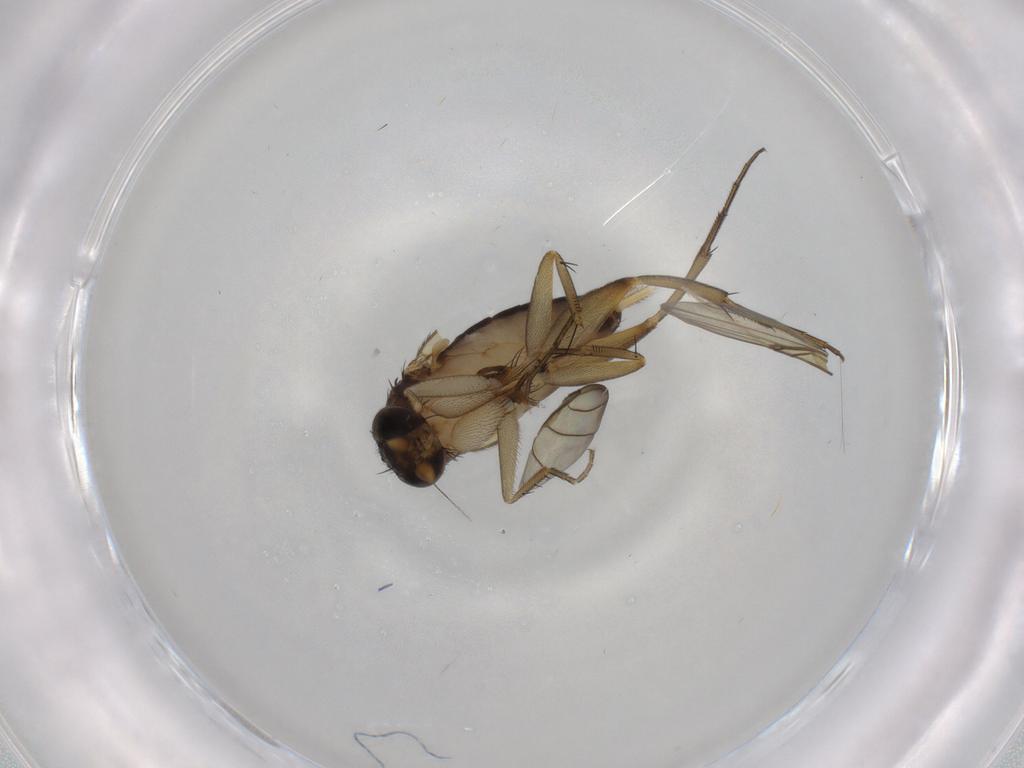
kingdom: Animalia
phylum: Arthropoda
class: Insecta
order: Diptera
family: Phoridae
